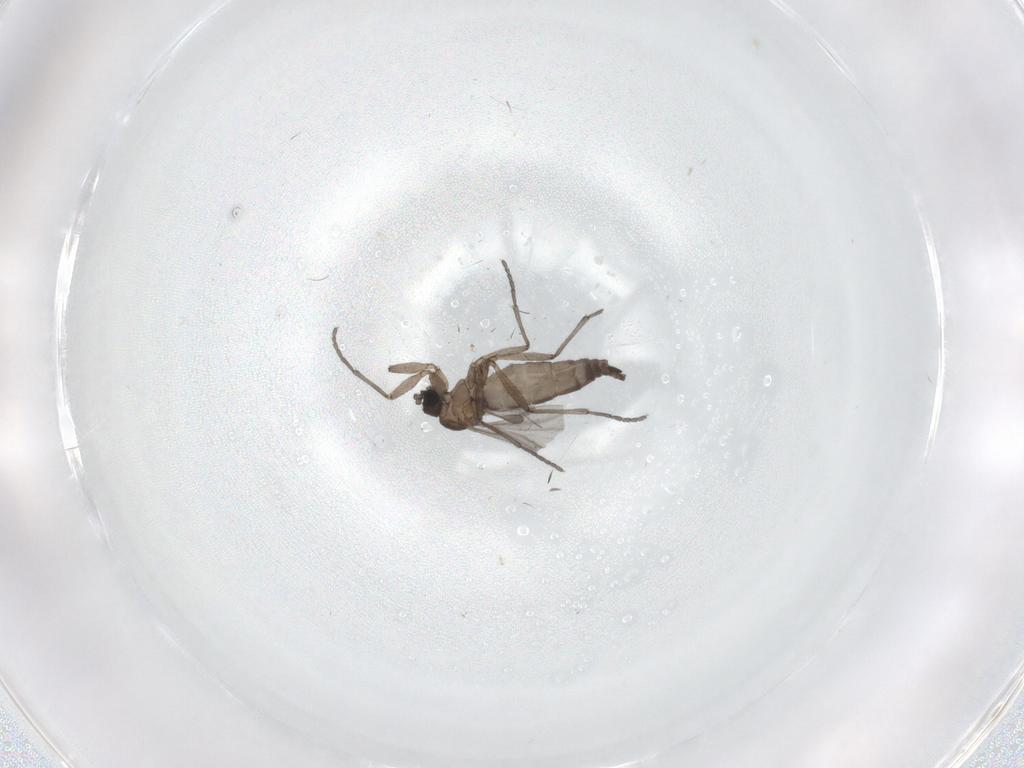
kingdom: Animalia
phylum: Arthropoda
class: Insecta
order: Diptera
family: Sciaridae
